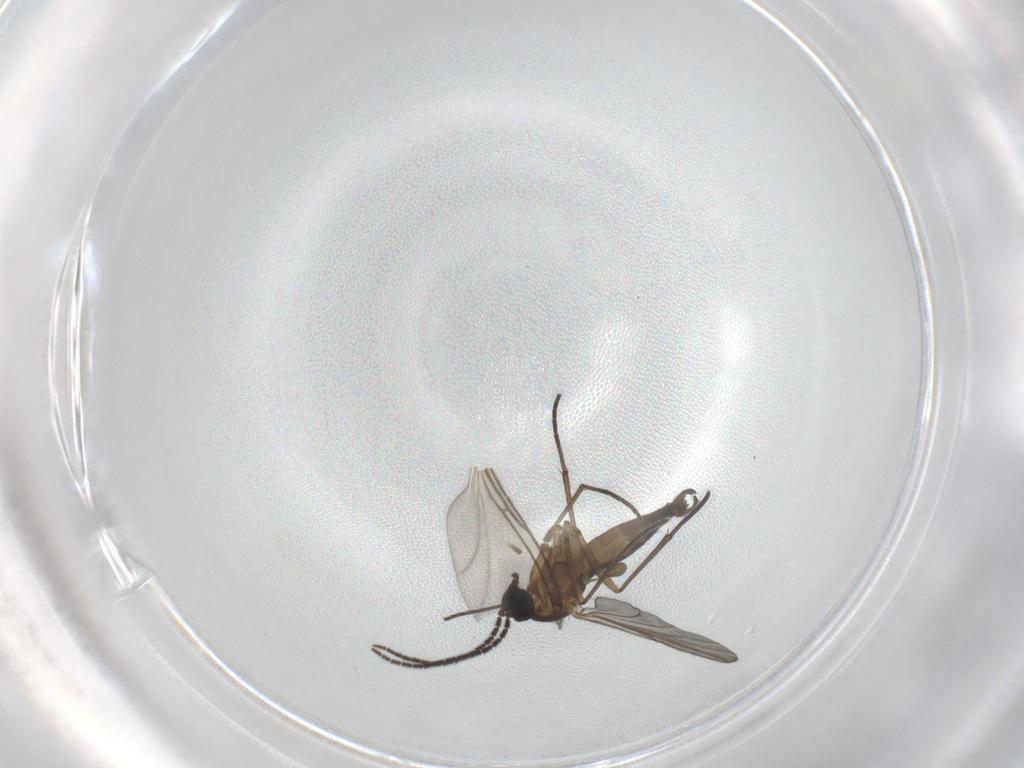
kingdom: Animalia
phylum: Arthropoda
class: Insecta
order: Diptera
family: Sciaridae
